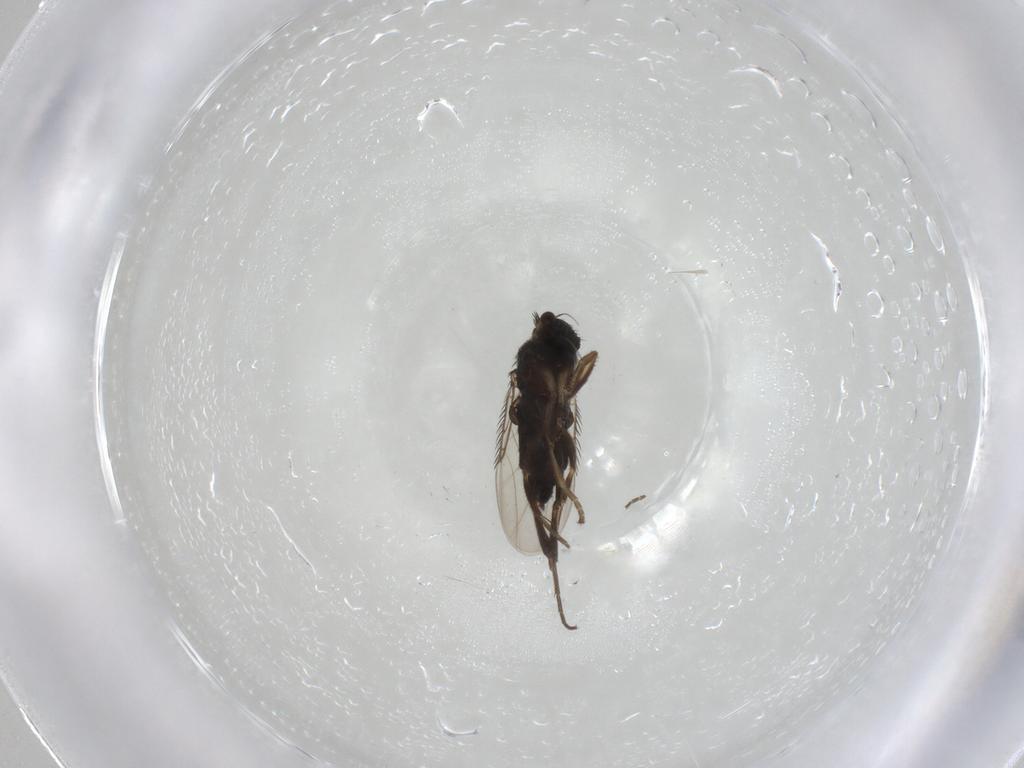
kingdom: Animalia
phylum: Arthropoda
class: Insecta
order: Diptera
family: Phoridae
